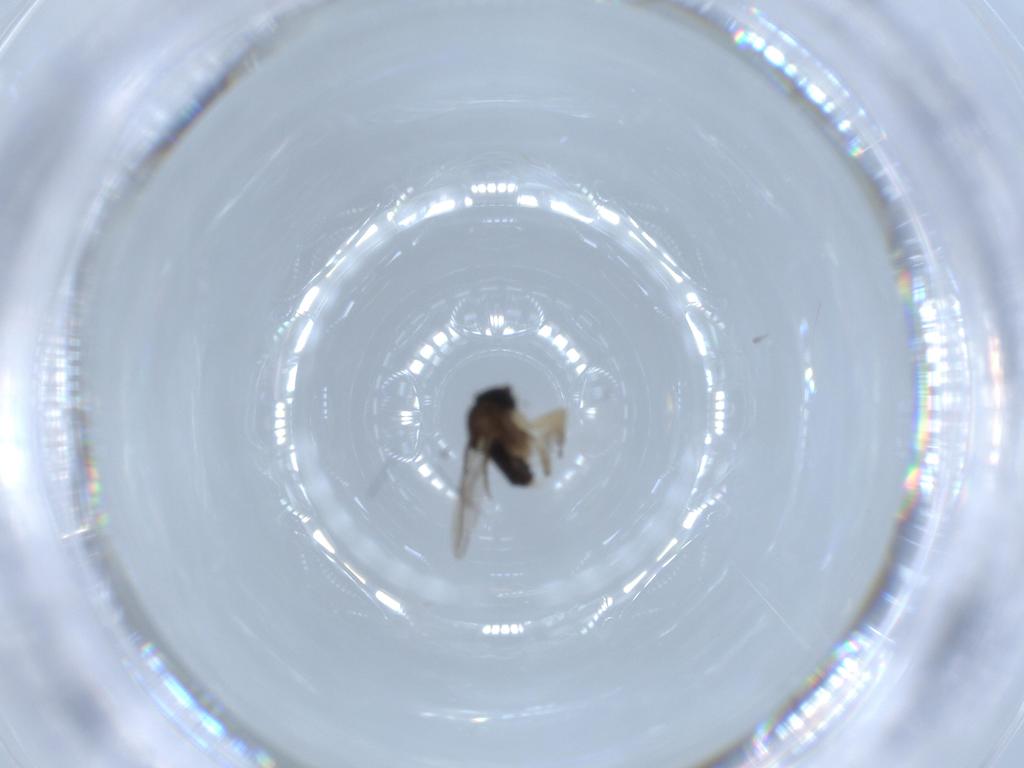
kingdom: Animalia
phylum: Arthropoda
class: Insecta
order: Diptera
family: Phoridae
